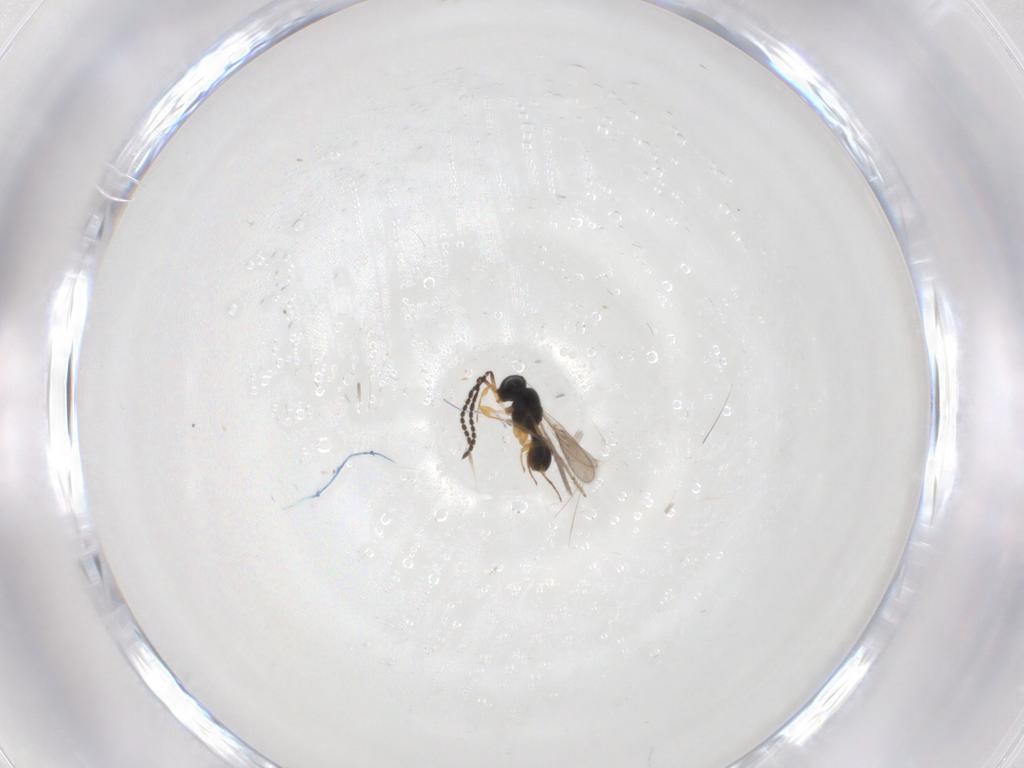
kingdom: Animalia
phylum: Arthropoda
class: Insecta
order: Hymenoptera
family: Scelionidae
